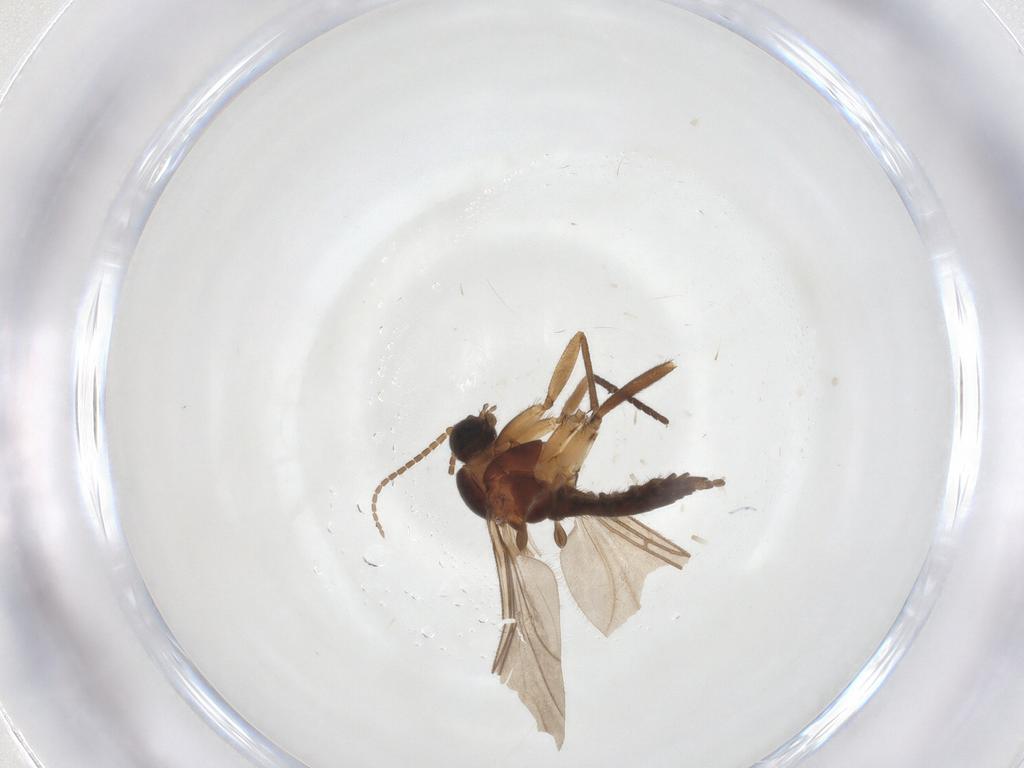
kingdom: Animalia
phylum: Arthropoda
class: Insecta
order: Diptera
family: Sciaridae
